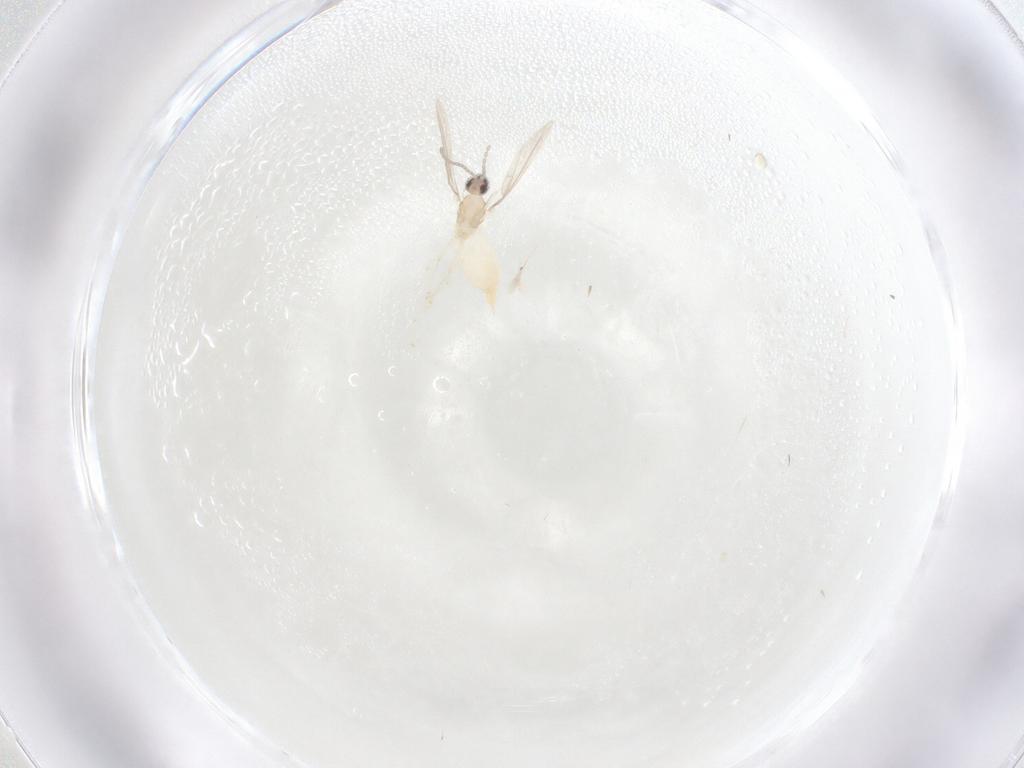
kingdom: Animalia
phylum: Arthropoda
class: Insecta
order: Diptera
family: Cecidomyiidae
